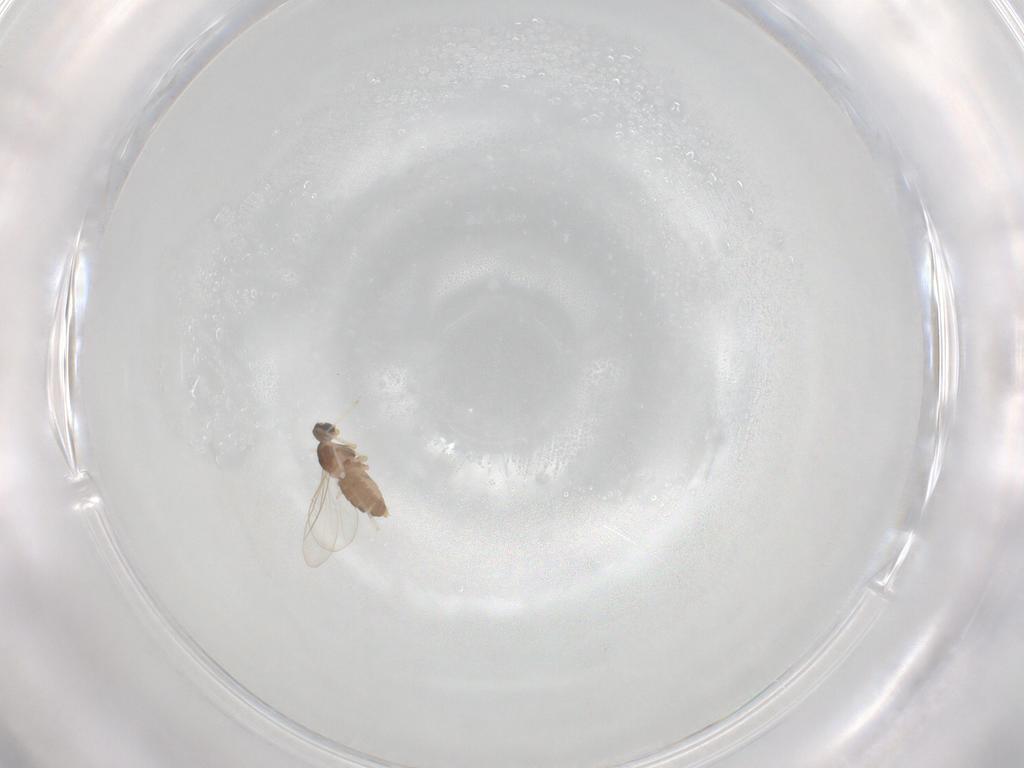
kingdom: Animalia
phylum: Arthropoda
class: Insecta
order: Diptera
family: Cecidomyiidae
